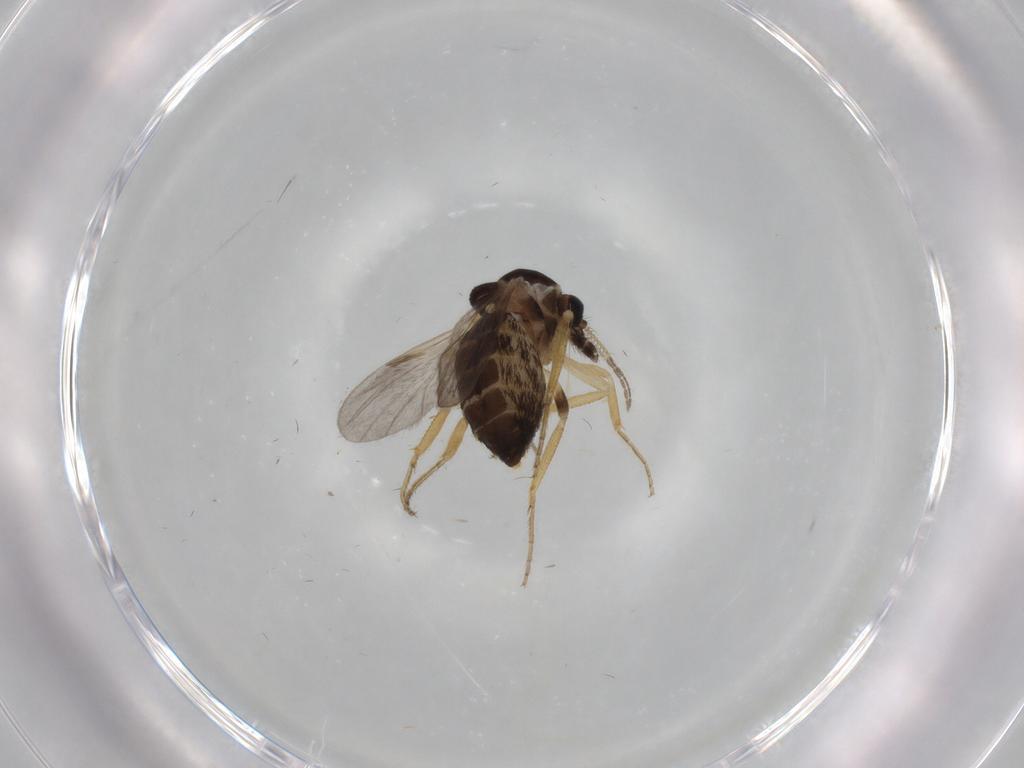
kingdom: Animalia
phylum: Arthropoda
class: Insecta
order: Diptera
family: Ceratopogonidae
